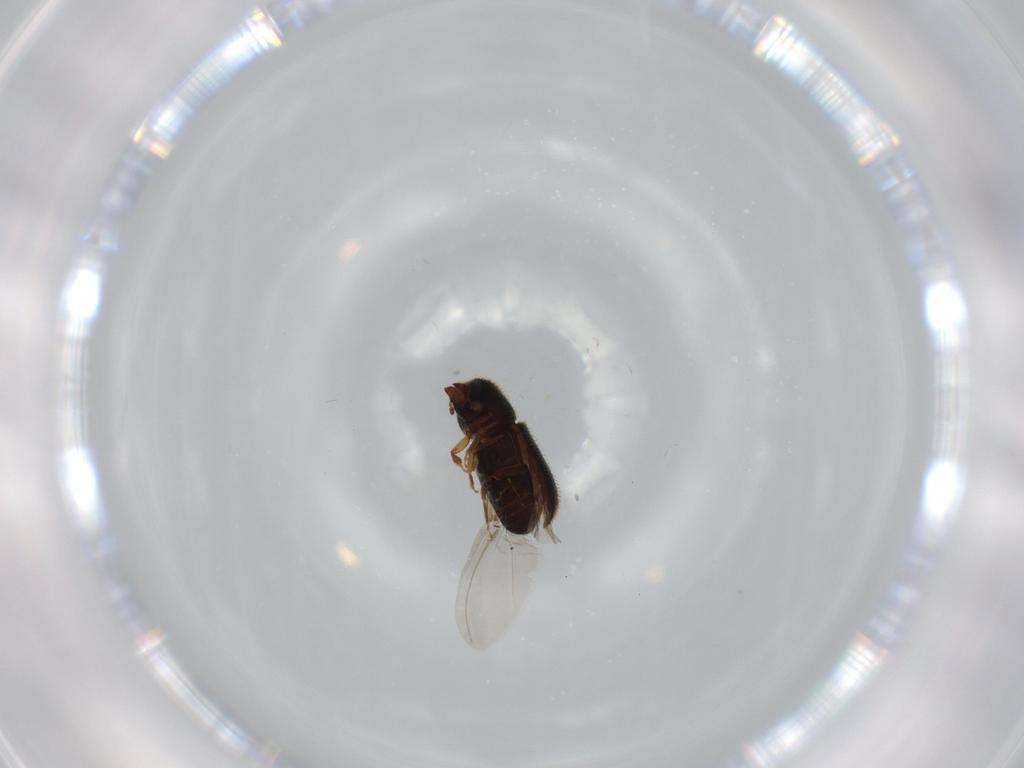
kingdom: Animalia
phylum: Arthropoda
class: Insecta
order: Coleoptera
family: Curculionidae
